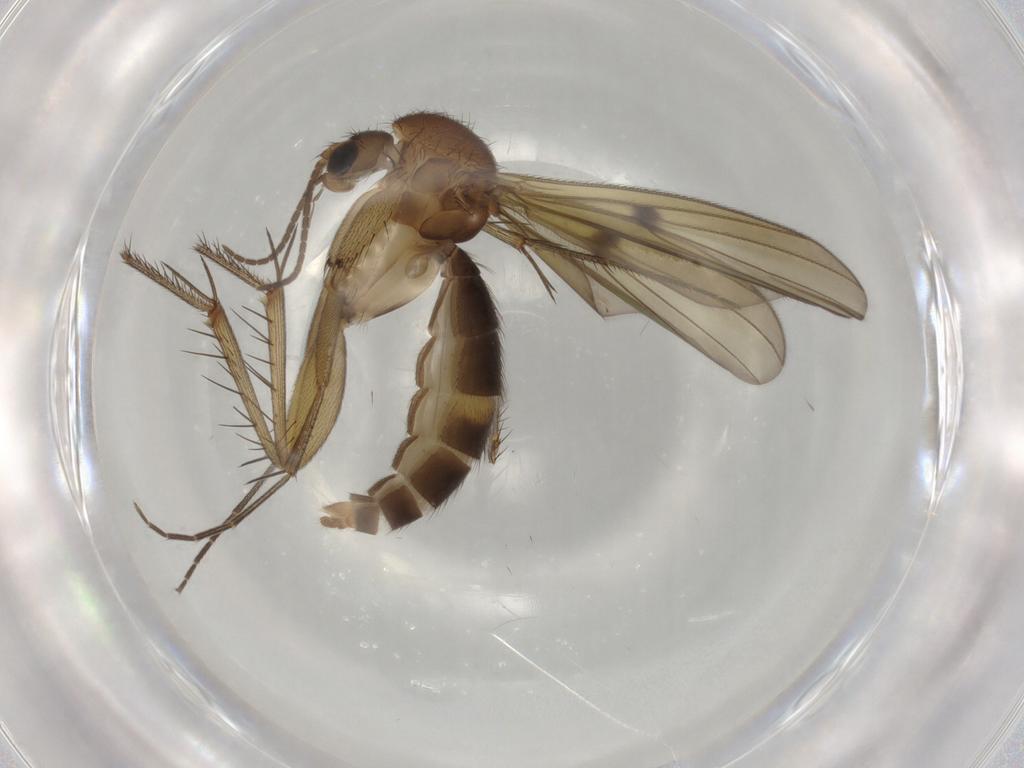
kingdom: Animalia
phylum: Arthropoda
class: Insecta
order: Diptera
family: Sciaridae
